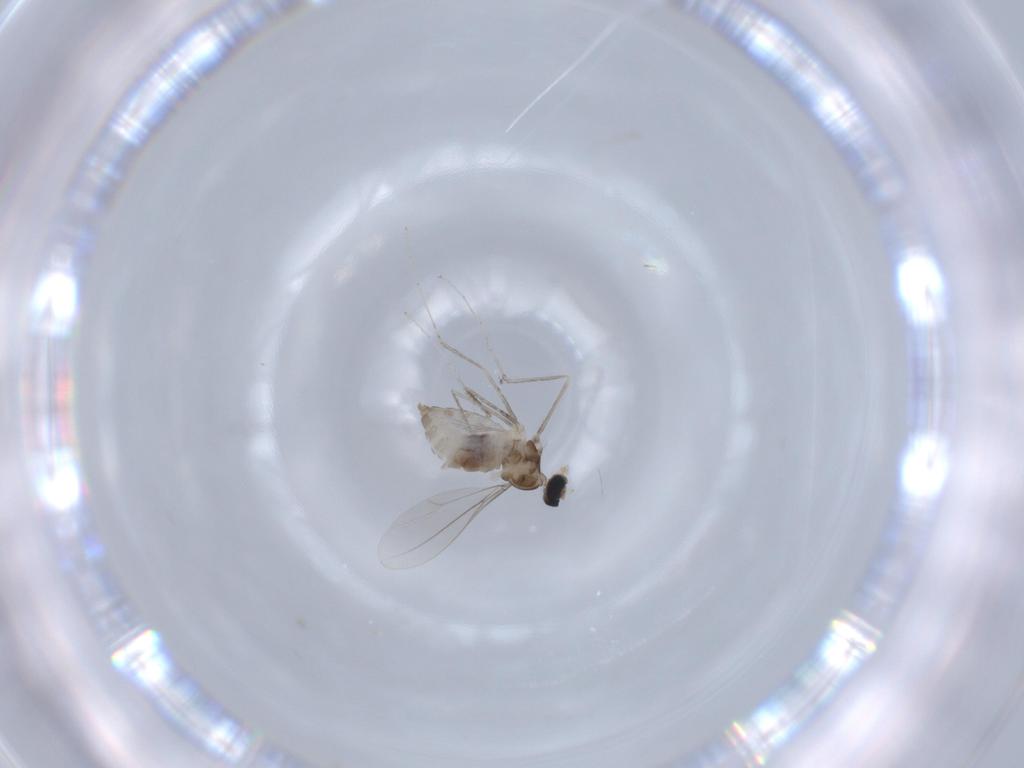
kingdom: Animalia
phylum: Arthropoda
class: Insecta
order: Diptera
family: Cecidomyiidae
